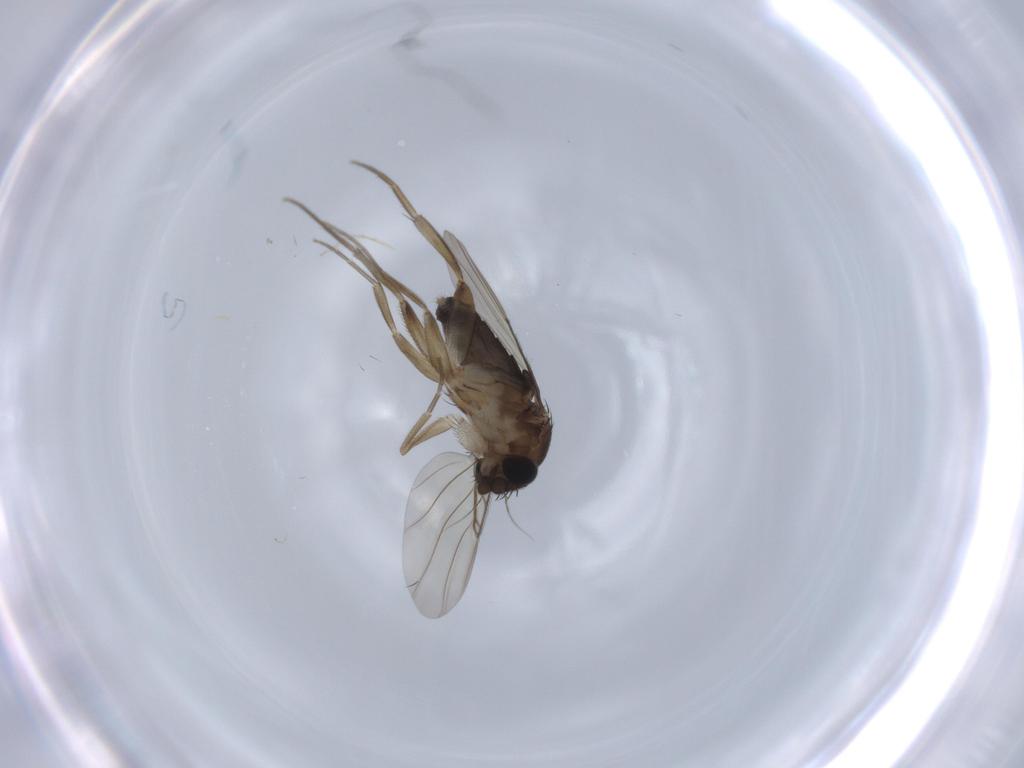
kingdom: Animalia
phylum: Arthropoda
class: Insecta
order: Diptera
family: Phoridae
